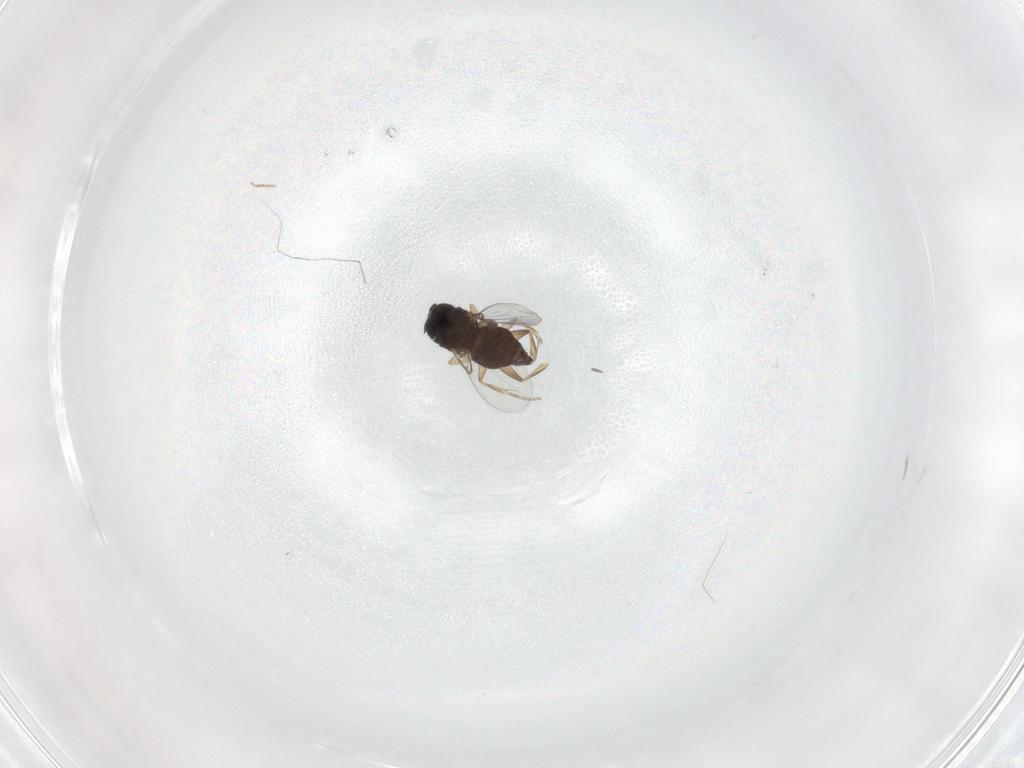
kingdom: Animalia
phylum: Arthropoda
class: Insecta
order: Diptera
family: Phoridae
